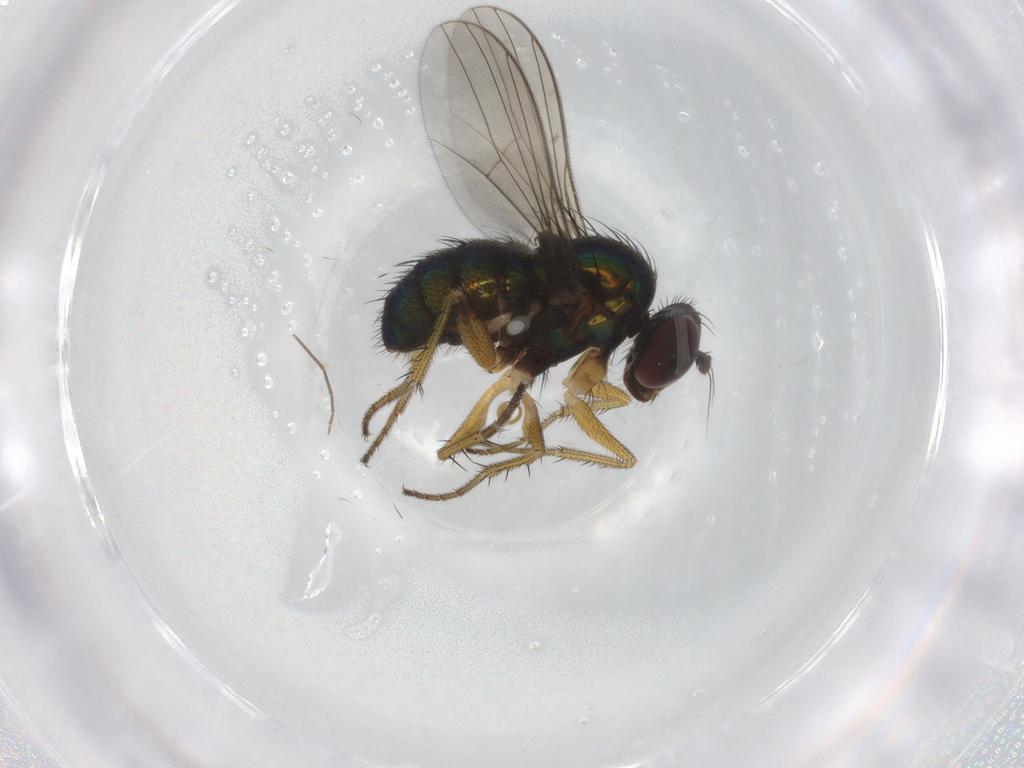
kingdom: Animalia
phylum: Arthropoda
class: Insecta
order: Diptera
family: Dolichopodidae
